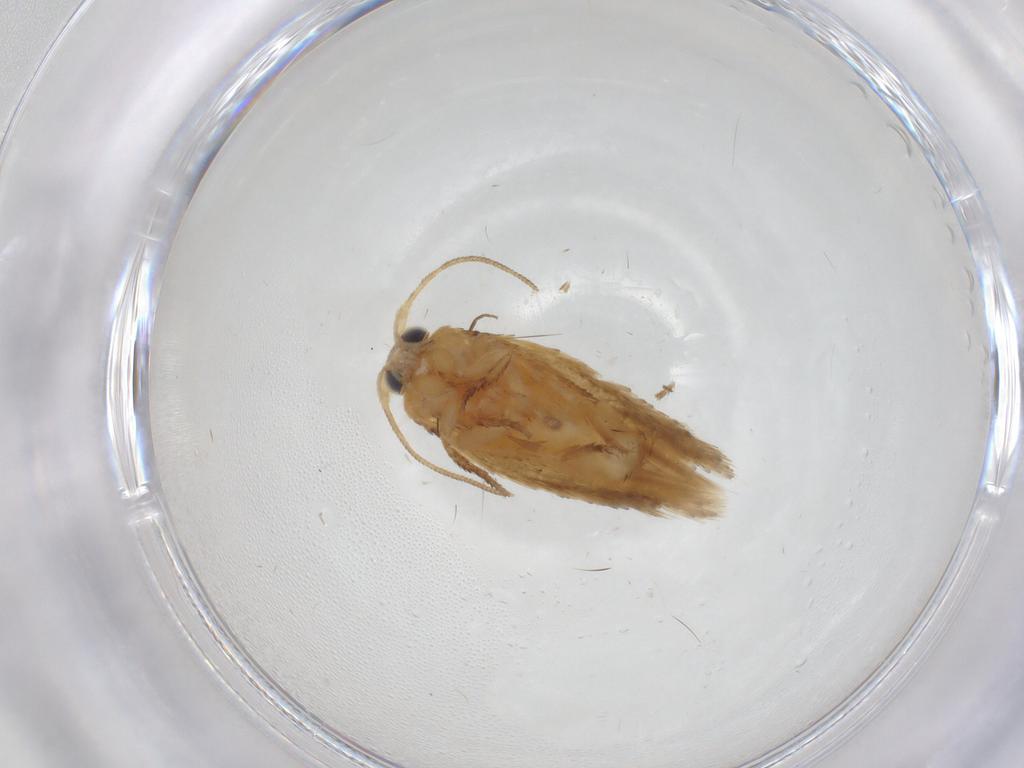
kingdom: Animalia
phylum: Arthropoda
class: Insecta
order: Lepidoptera
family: Nepticulidae
